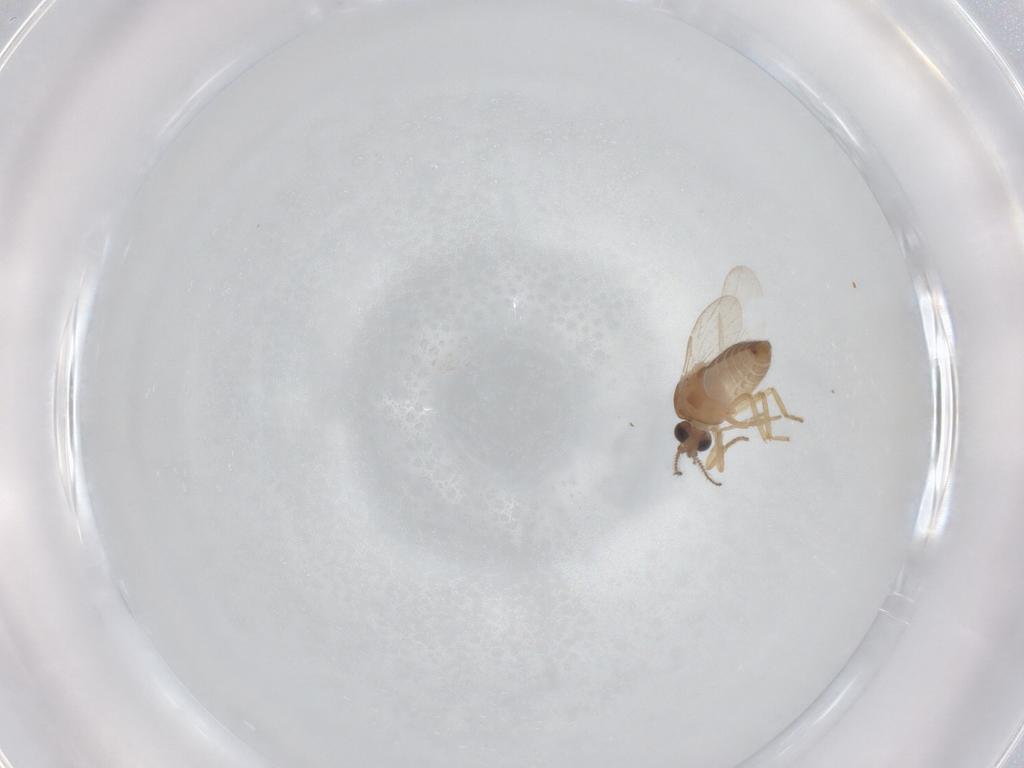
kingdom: Animalia
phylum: Arthropoda
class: Insecta
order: Diptera
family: Ceratopogonidae
